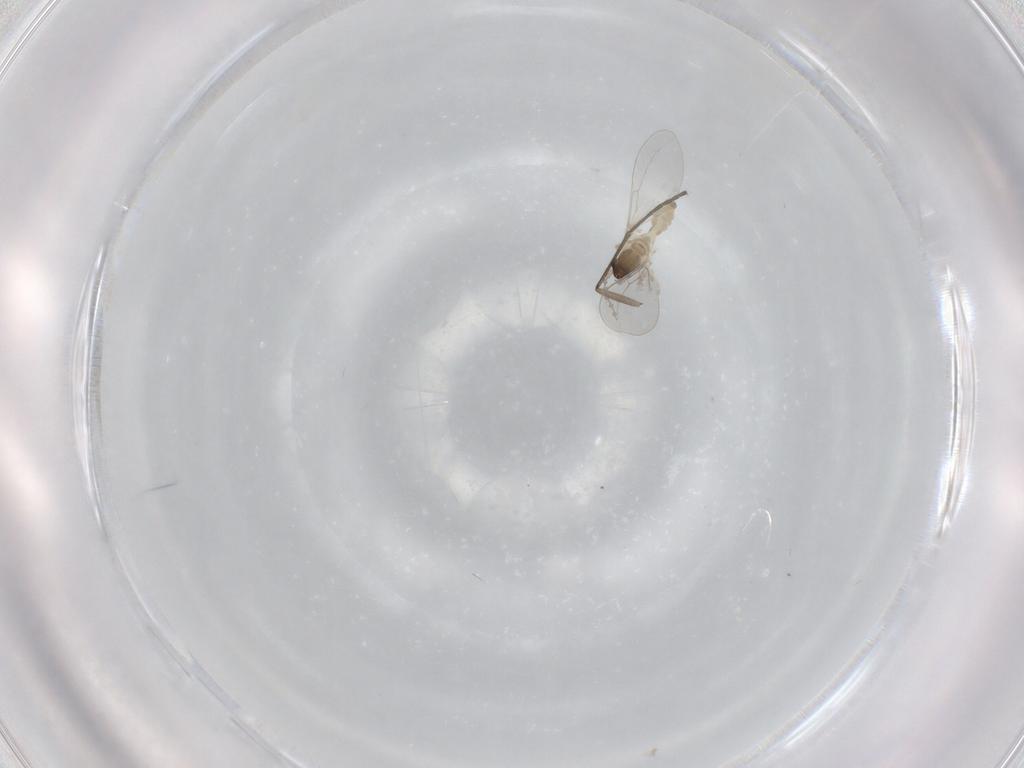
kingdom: Animalia
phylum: Arthropoda
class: Insecta
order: Diptera
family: Cecidomyiidae
